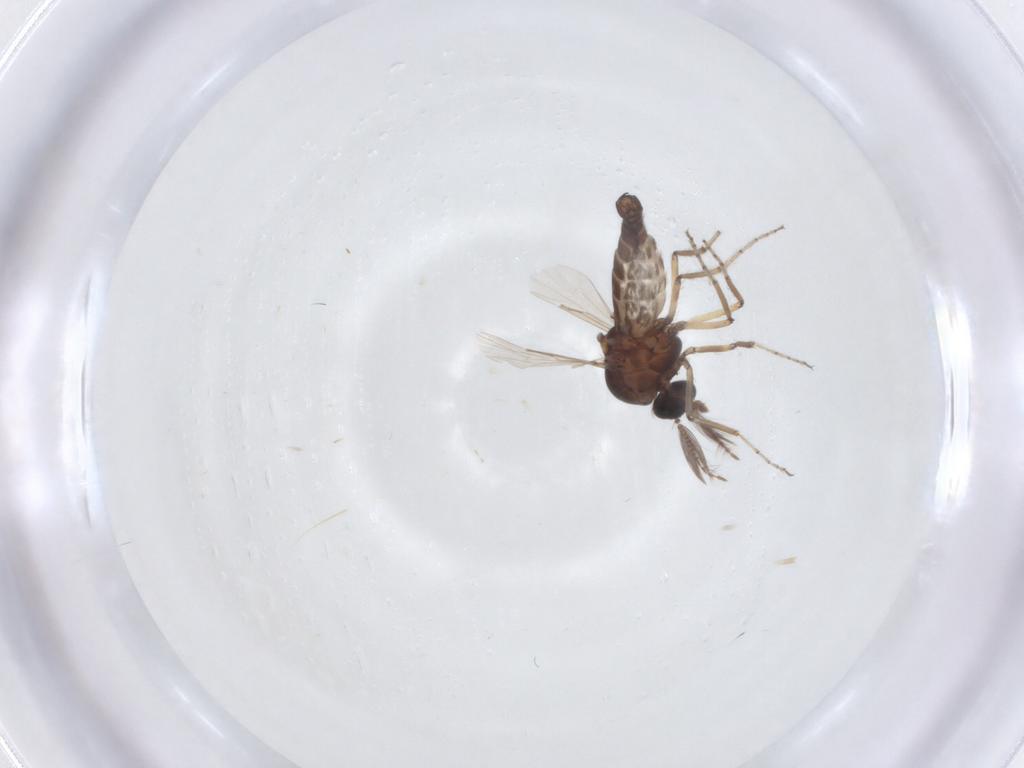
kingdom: Animalia
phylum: Arthropoda
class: Insecta
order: Diptera
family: Ceratopogonidae
